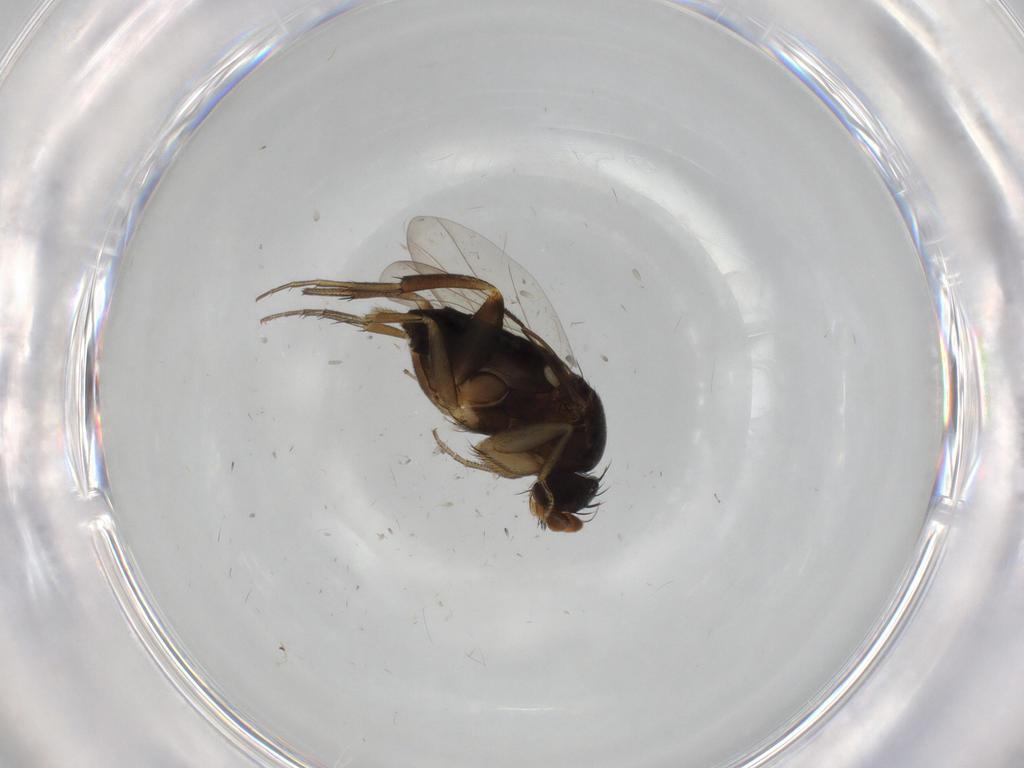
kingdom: Animalia
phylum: Arthropoda
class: Insecta
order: Diptera
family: Phoridae
